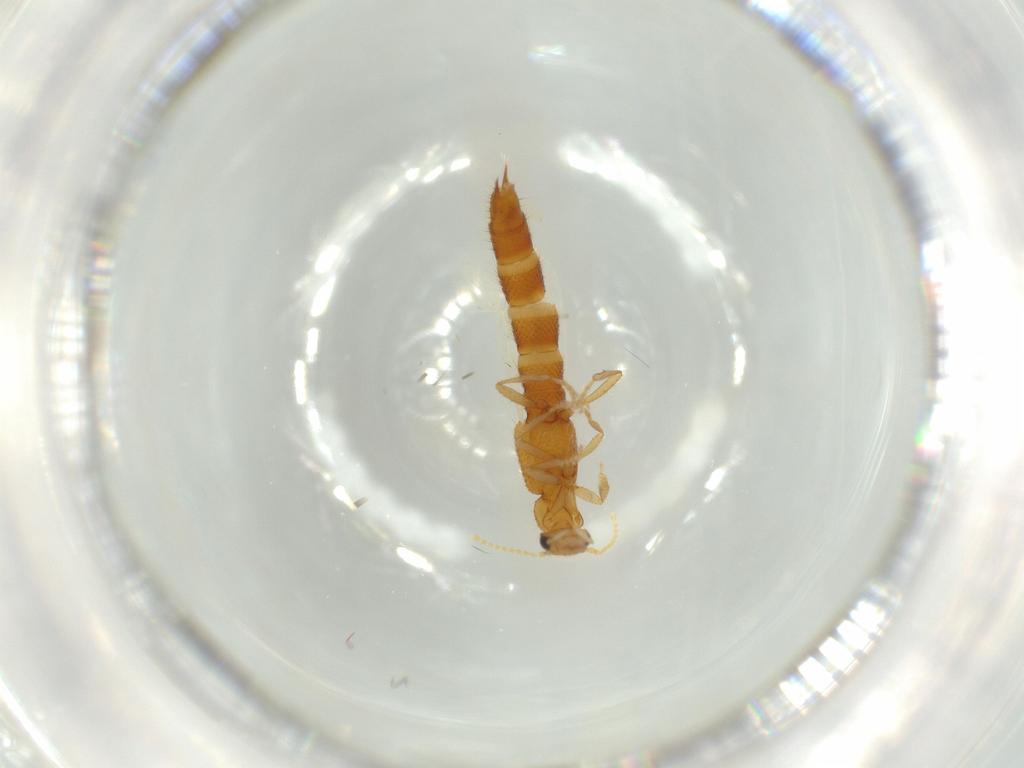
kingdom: Animalia
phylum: Arthropoda
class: Insecta
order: Coleoptera
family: Staphylinidae
